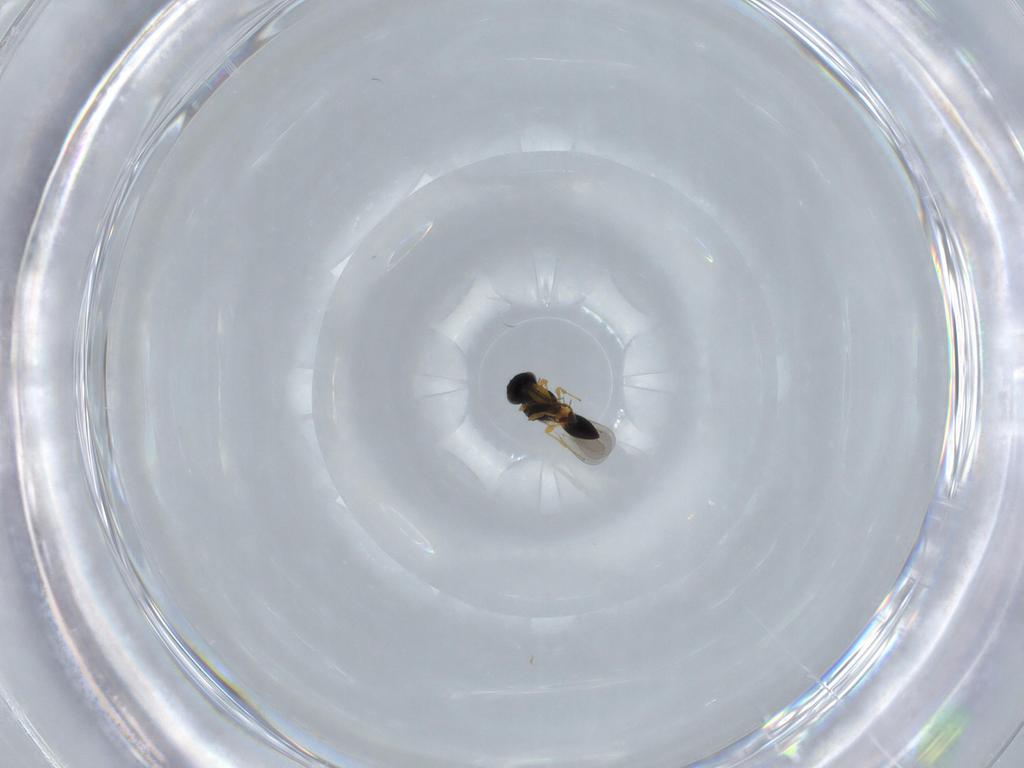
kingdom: Animalia
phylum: Arthropoda
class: Insecta
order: Hymenoptera
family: Platygastridae
